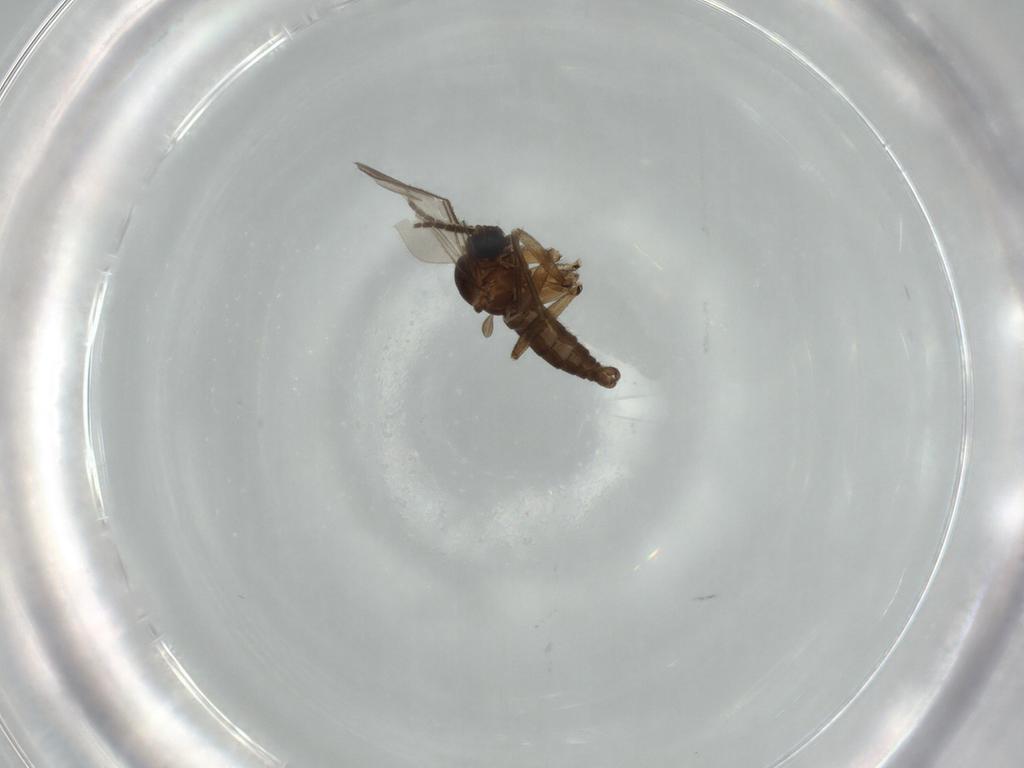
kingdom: Animalia
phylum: Arthropoda
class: Insecta
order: Diptera
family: Sciaridae
